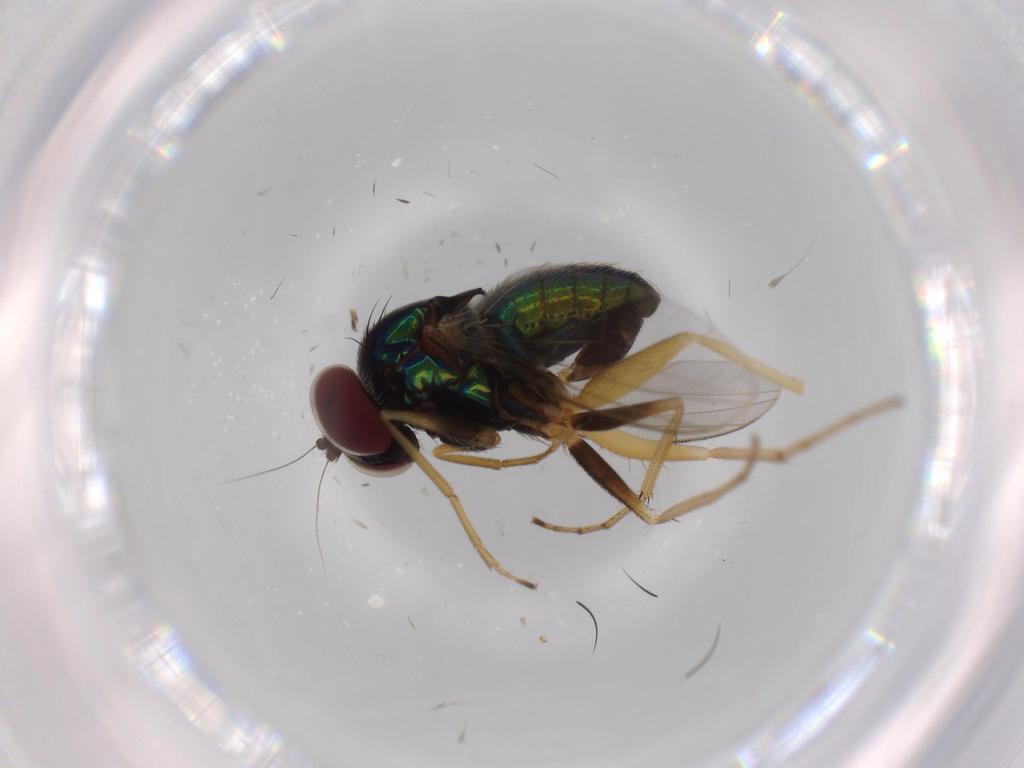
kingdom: Animalia
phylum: Arthropoda
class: Insecta
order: Diptera
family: Dolichopodidae
